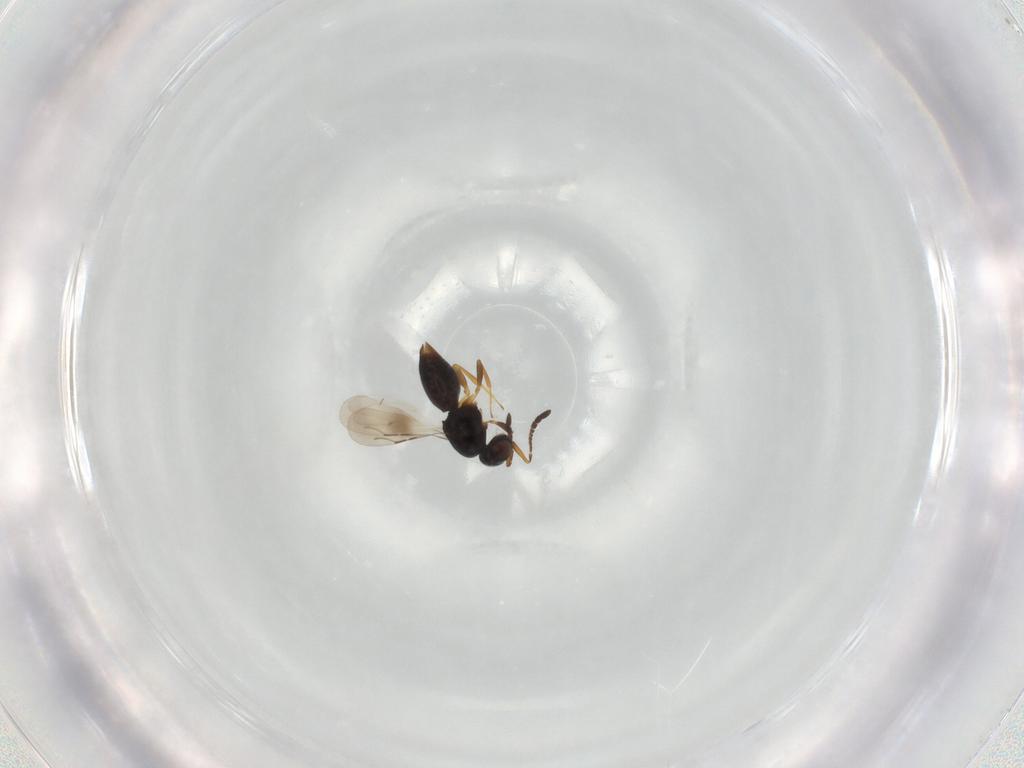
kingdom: Animalia
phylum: Arthropoda
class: Insecta
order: Hymenoptera
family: Ceraphronidae
